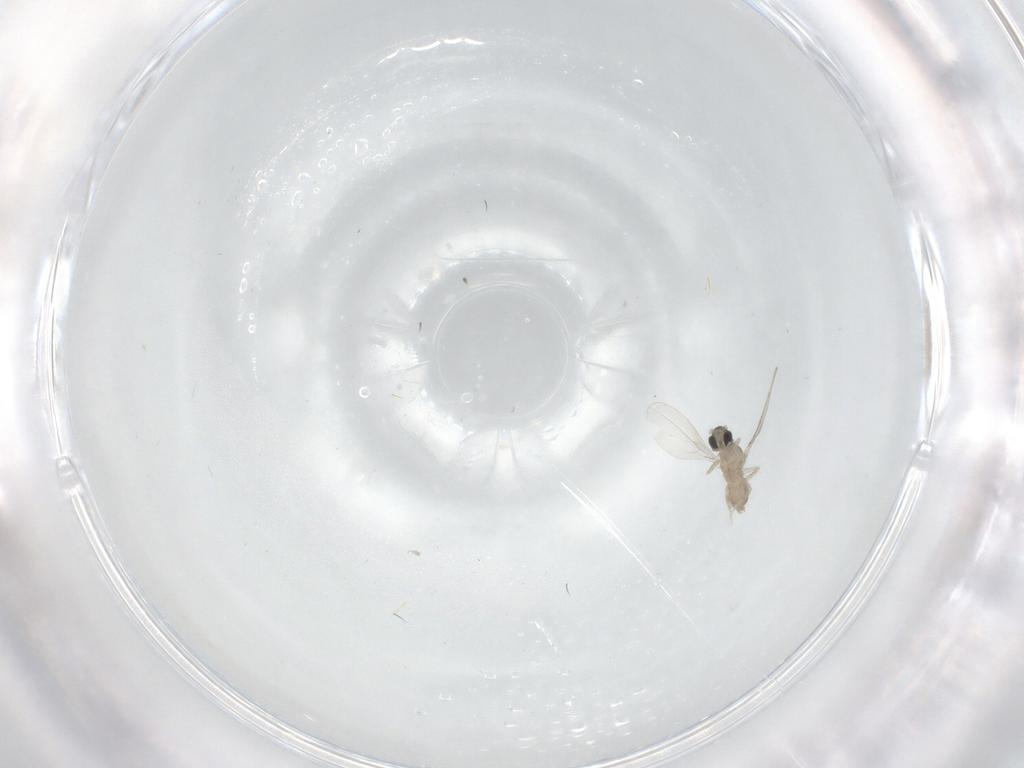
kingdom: Animalia
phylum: Arthropoda
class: Insecta
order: Diptera
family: Cecidomyiidae
